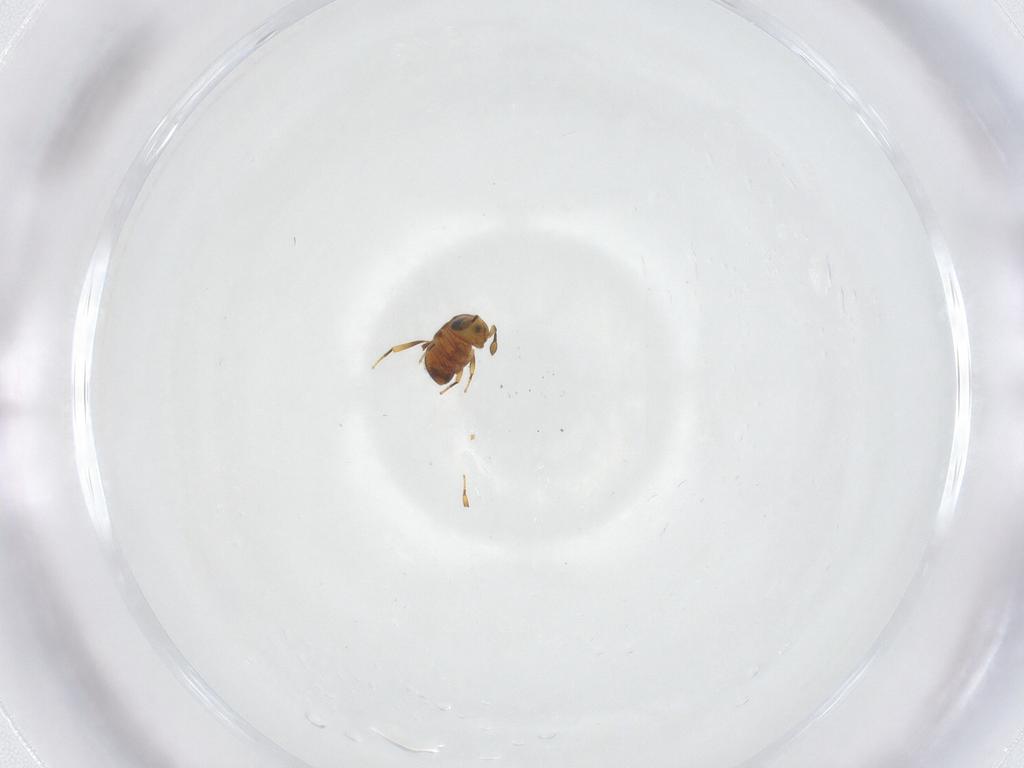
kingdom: Animalia
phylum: Arthropoda
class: Insecta
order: Hymenoptera
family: Scelionidae
